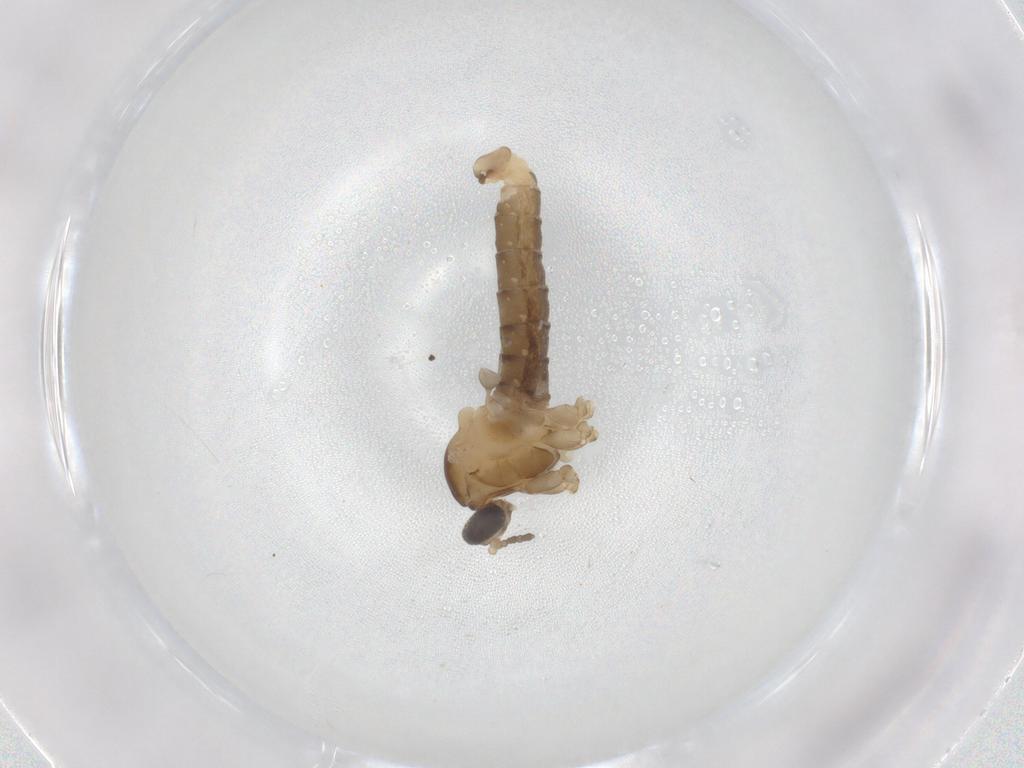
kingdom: Animalia
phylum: Arthropoda
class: Insecta
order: Diptera
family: Cecidomyiidae
